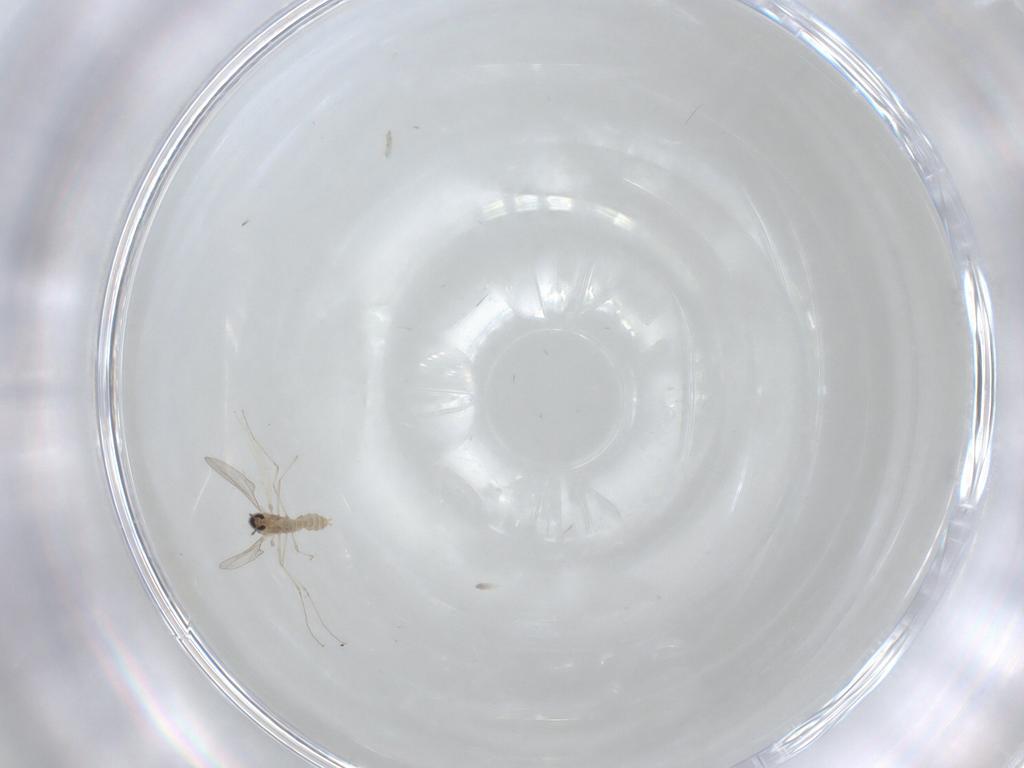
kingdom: Animalia
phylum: Arthropoda
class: Insecta
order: Diptera
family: Cecidomyiidae
